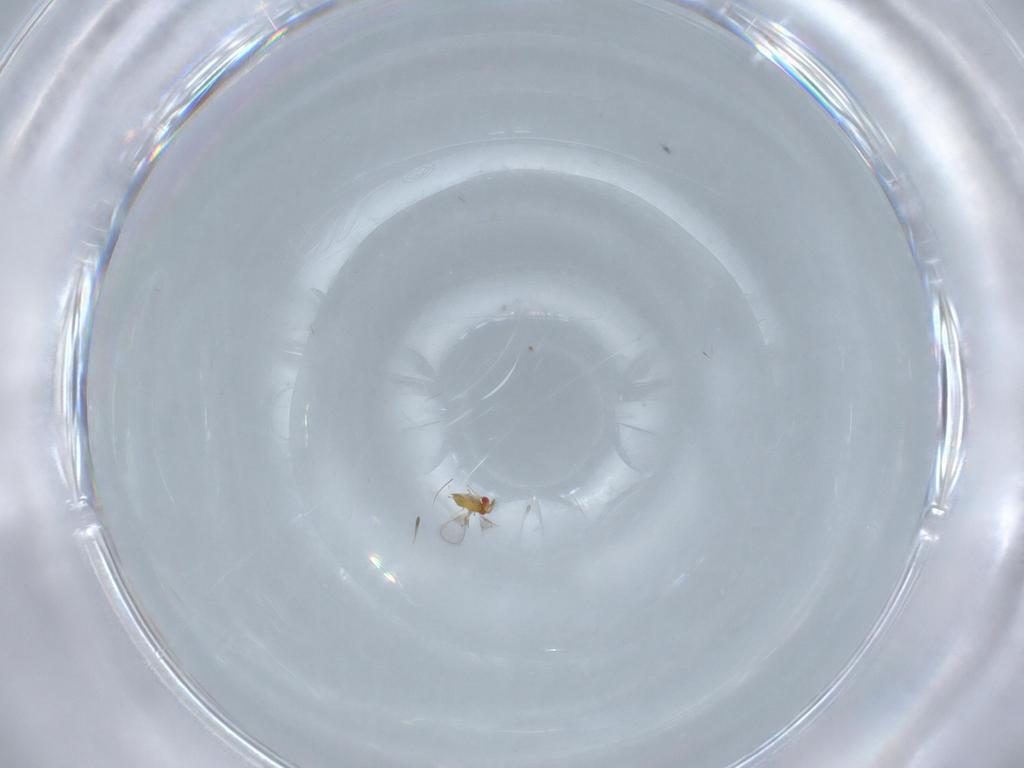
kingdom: Animalia
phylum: Arthropoda
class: Insecta
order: Hymenoptera
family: Trichogrammatidae
